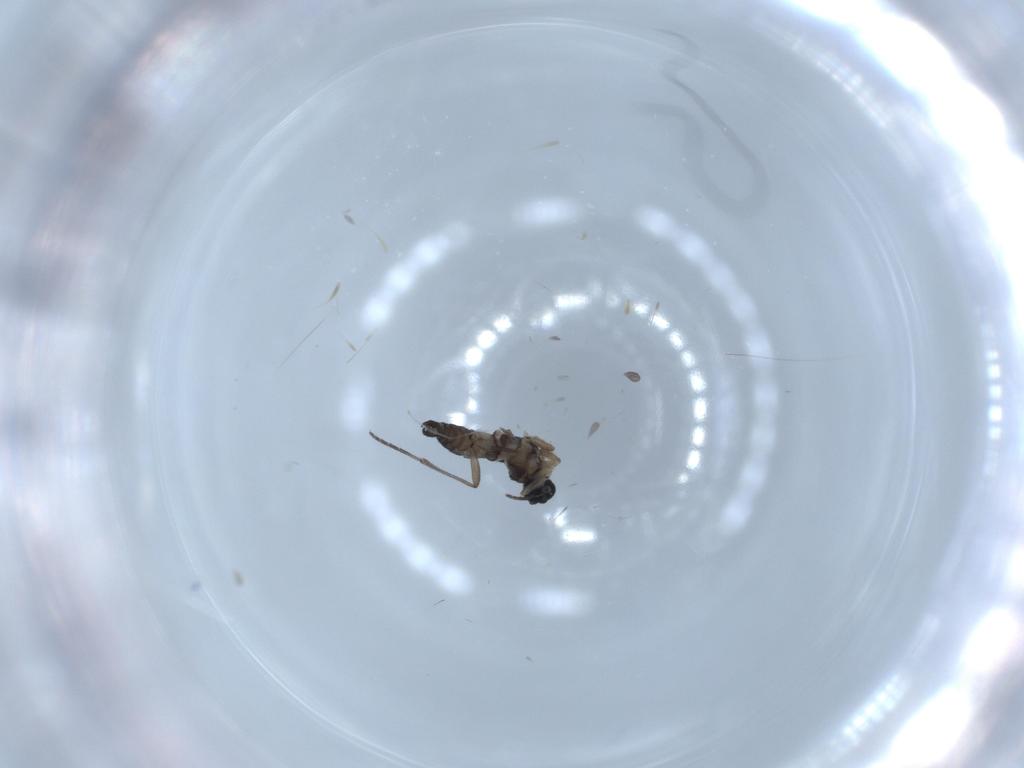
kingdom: Animalia
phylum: Arthropoda
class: Insecta
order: Diptera
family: Sciaridae
